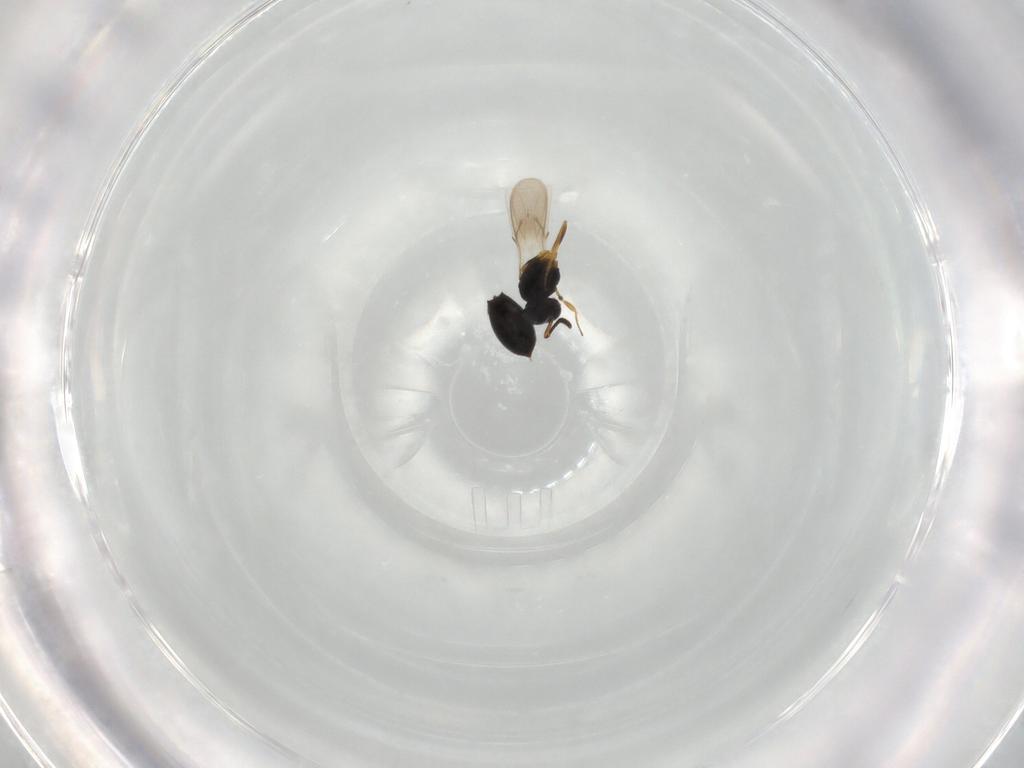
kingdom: Animalia
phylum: Arthropoda
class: Insecta
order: Hymenoptera
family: Scelionidae
